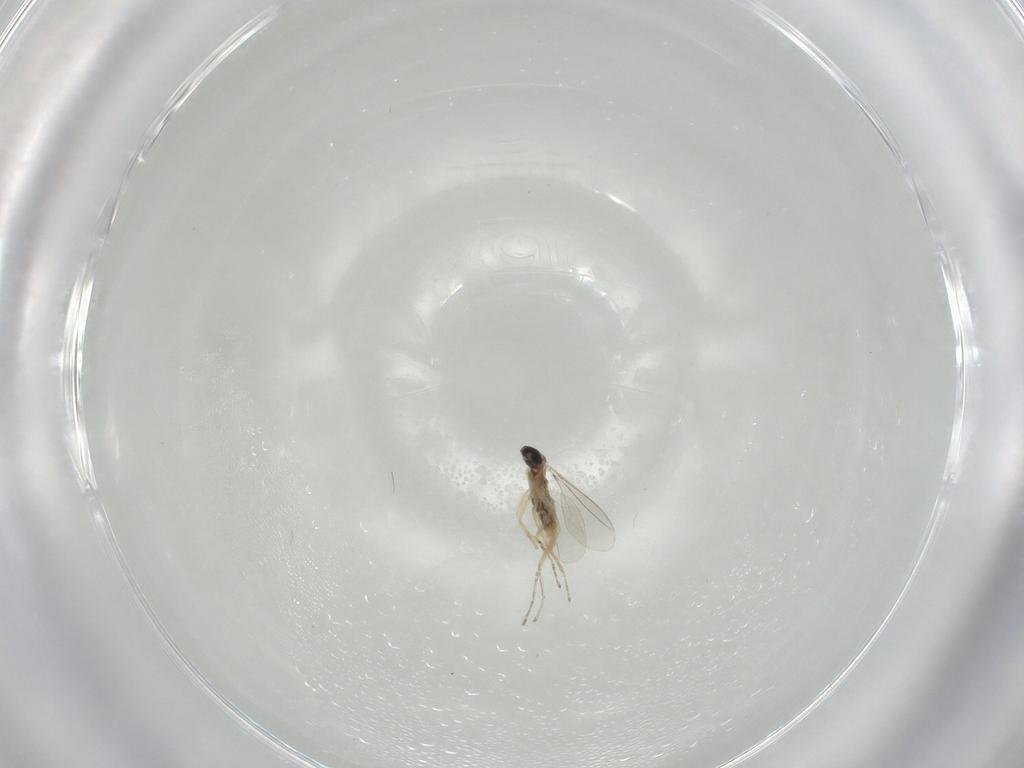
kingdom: Animalia
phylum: Arthropoda
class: Insecta
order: Diptera
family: Cecidomyiidae
